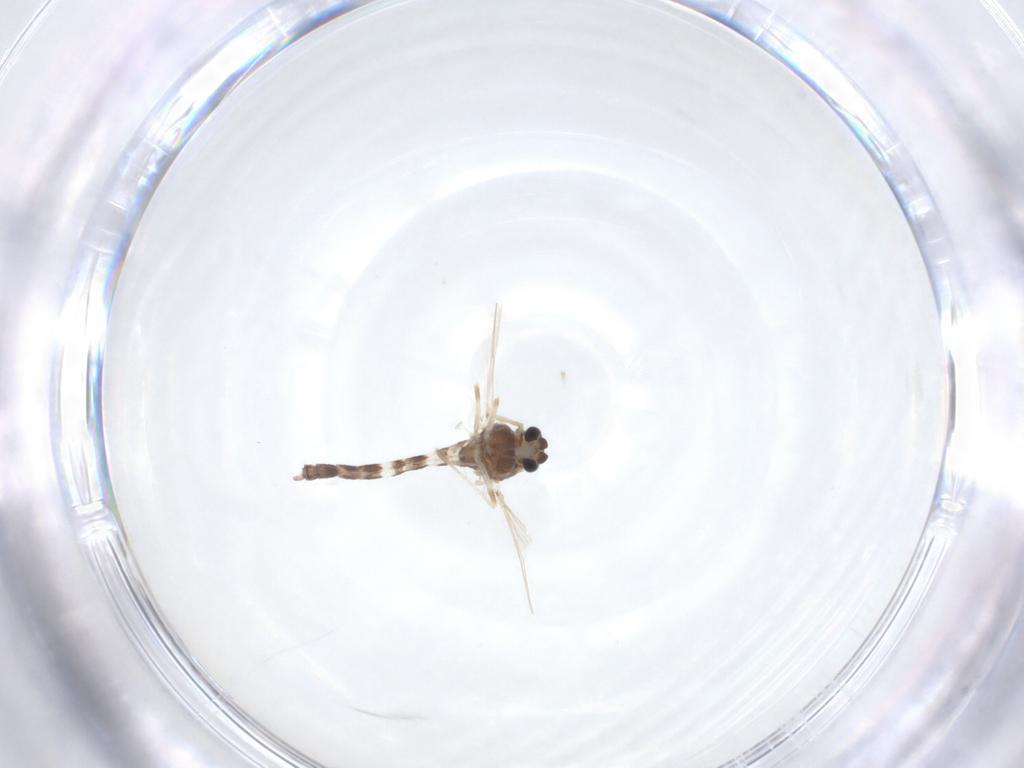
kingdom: Animalia
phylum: Arthropoda
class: Insecta
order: Diptera
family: Chironomidae
